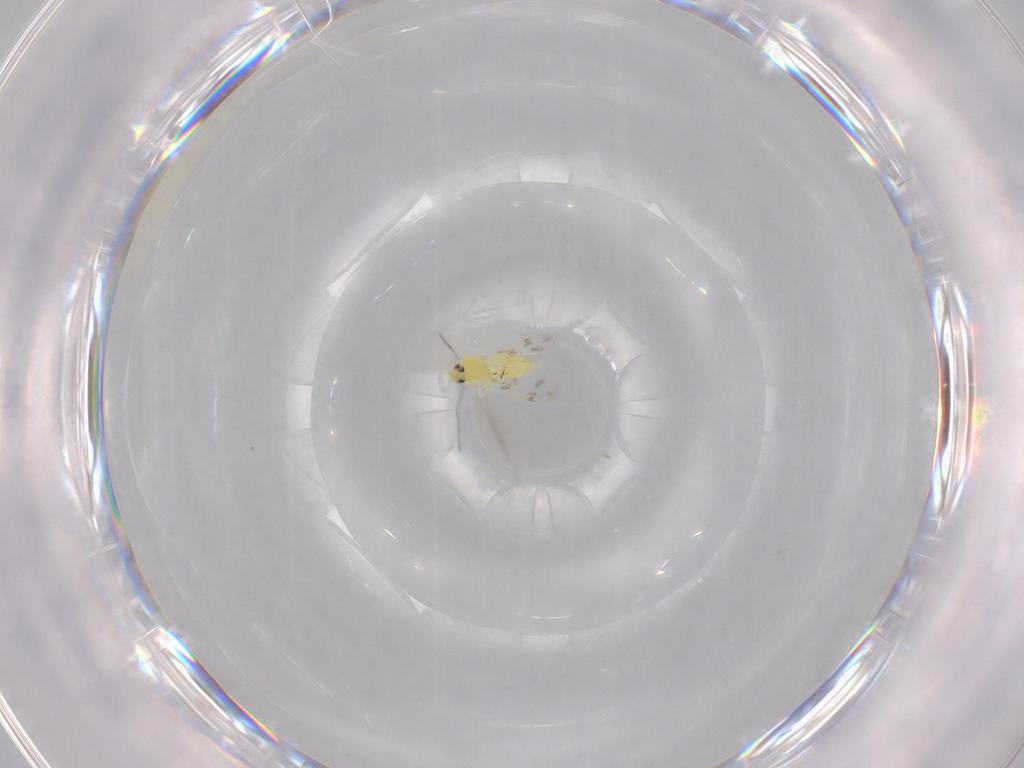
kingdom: Animalia
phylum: Arthropoda
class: Insecta
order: Hemiptera
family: Aleyrodidae
